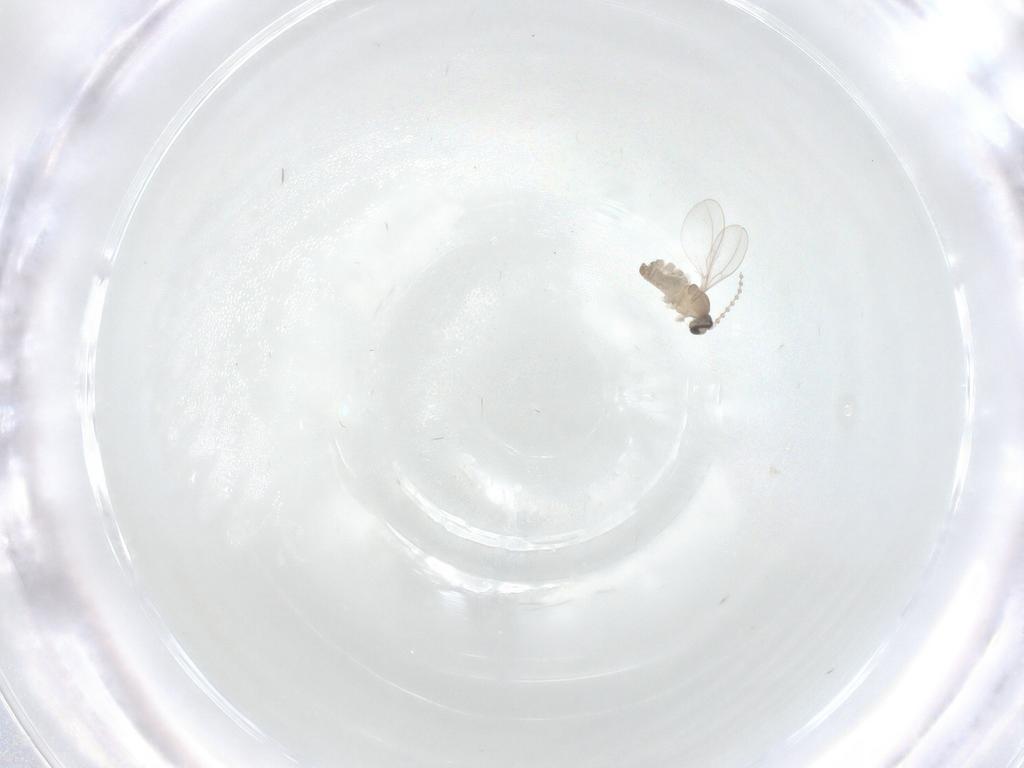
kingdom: Animalia
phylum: Arthropoda
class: Insecta
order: Diptera
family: Cecidomyiidae
